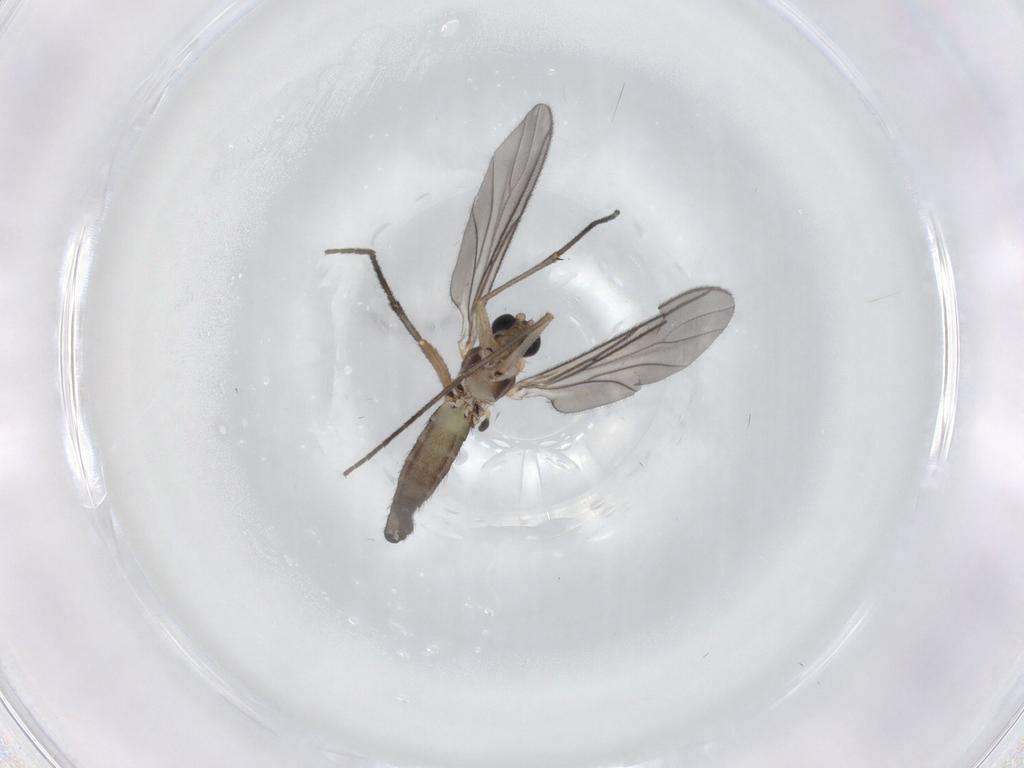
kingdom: Animalia
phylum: Arthropoda
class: Insecta
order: Diptera
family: Sciaridae
